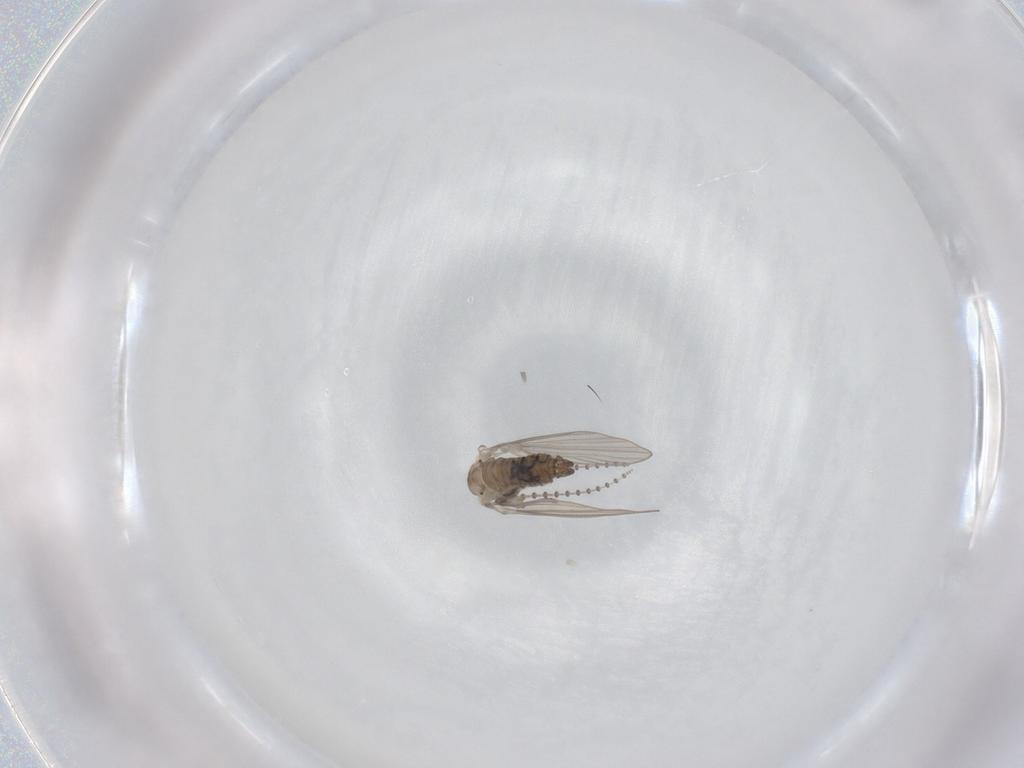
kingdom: Animalia
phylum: Arthropoda
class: Insecta
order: Diptera
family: Psychodidae
